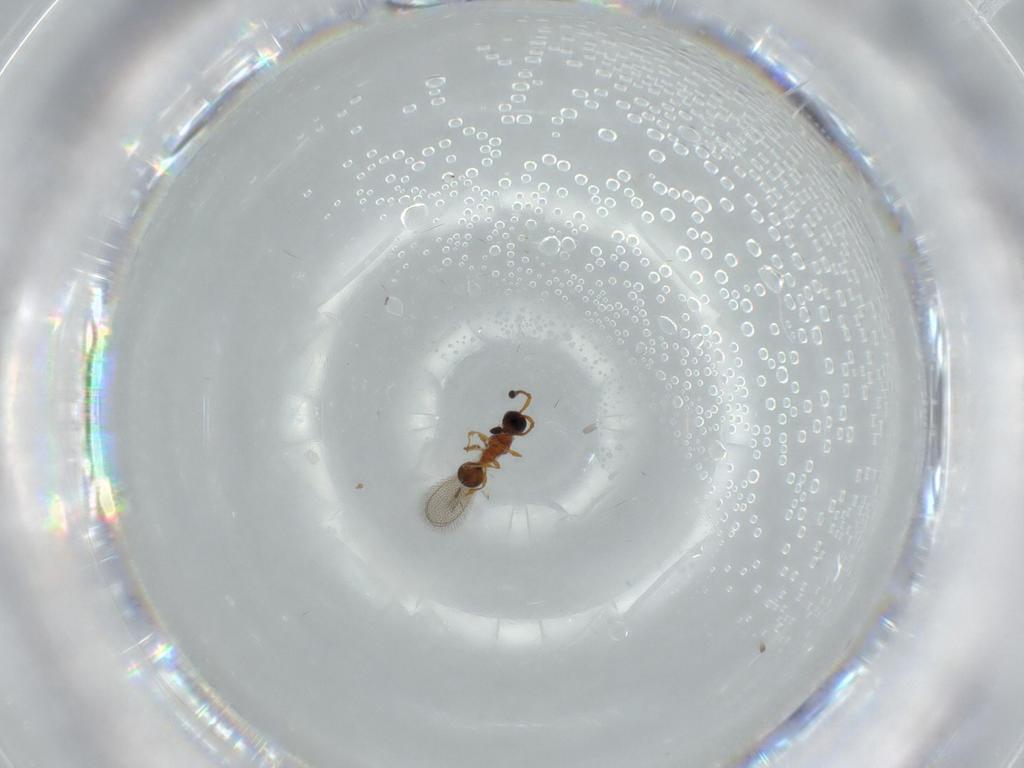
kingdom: Animalia
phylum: Arthropoda
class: Insecta
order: Hymenoptera
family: Diapriidae
